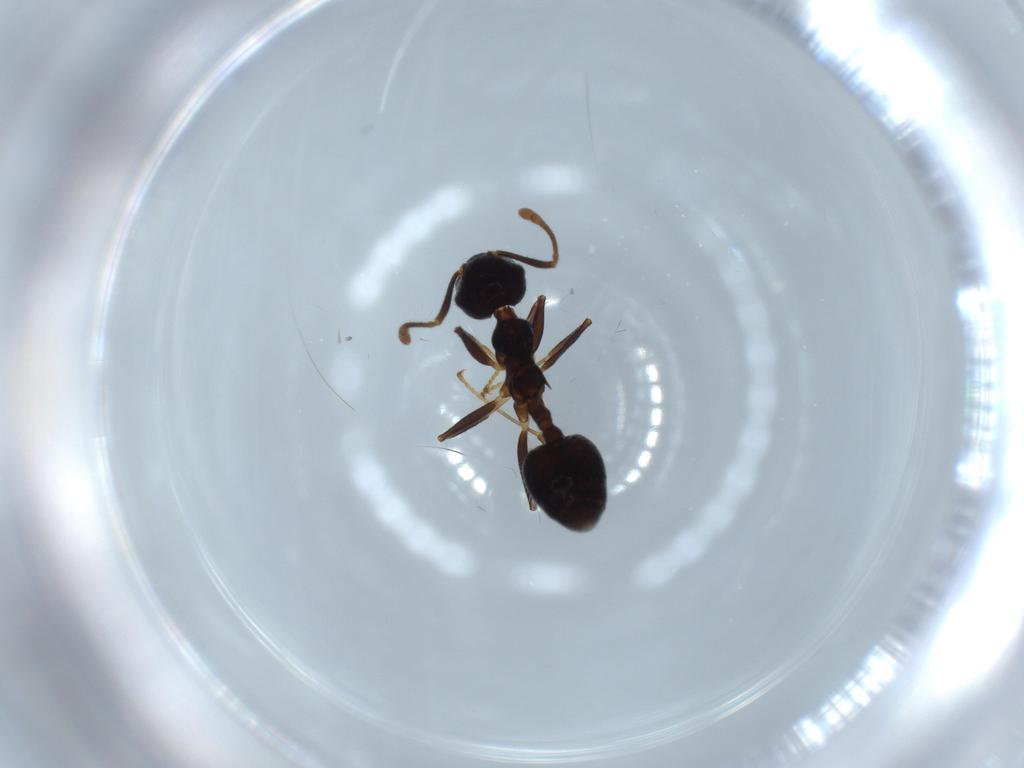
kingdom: Animalia
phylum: Arthropoda
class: Insecta
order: Hymenoptera
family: Formicidae
